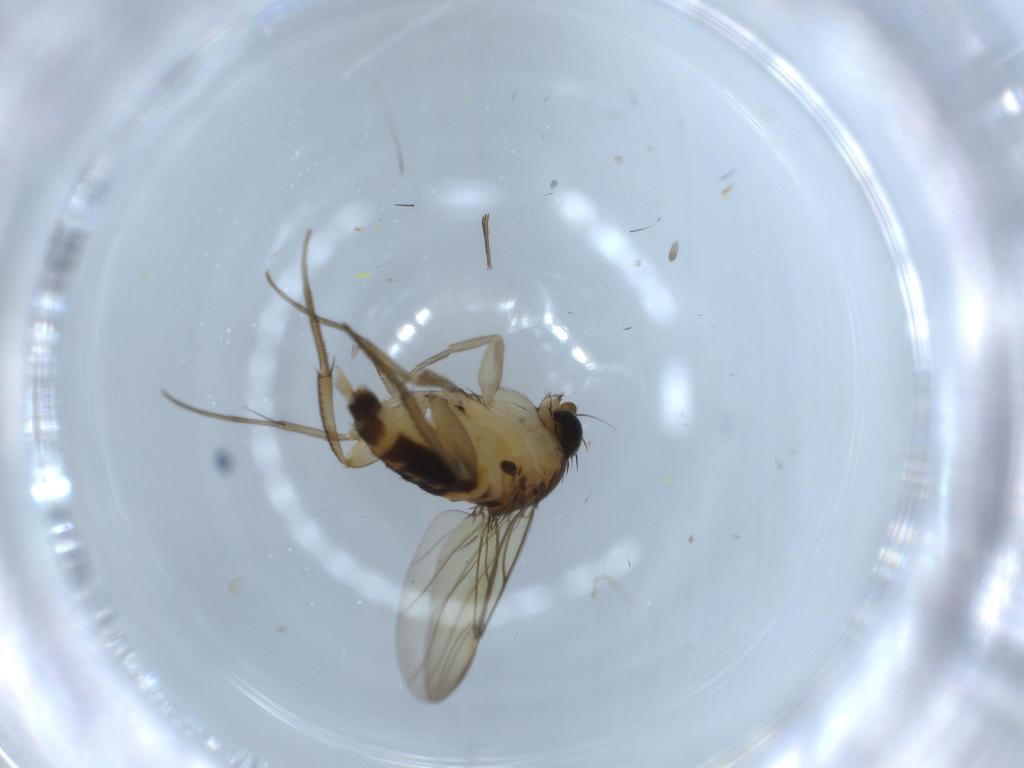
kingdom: Animalia
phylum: Arthropoda
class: Insecta
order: Diptera
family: Phoridae
